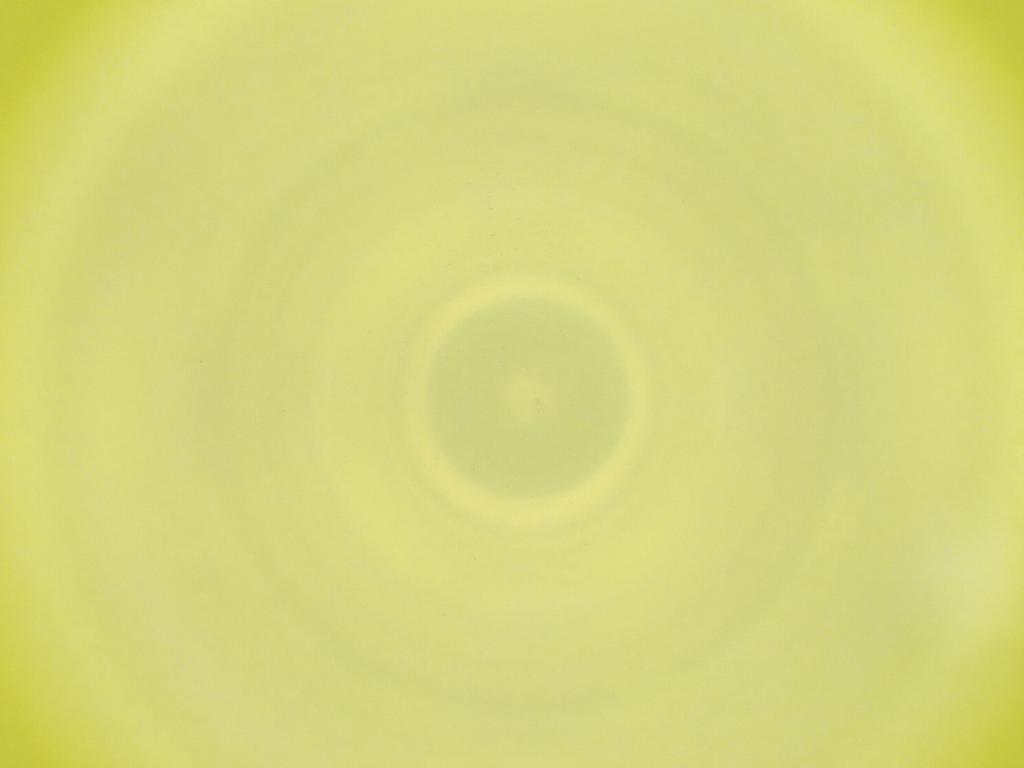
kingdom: Animalia
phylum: Arthropoda
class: Insecta
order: Diptera
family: Cecidomyiidae
